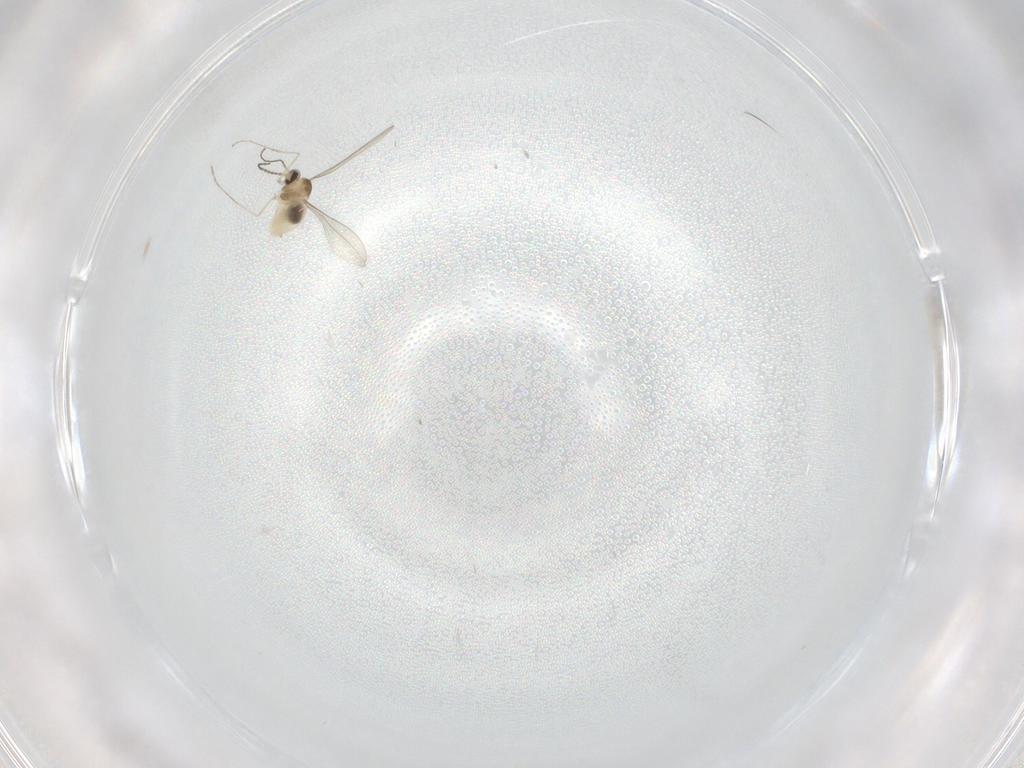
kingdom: Animalia
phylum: Arthropoda
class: Insecta
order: Diptera
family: Cecidomyiidae
